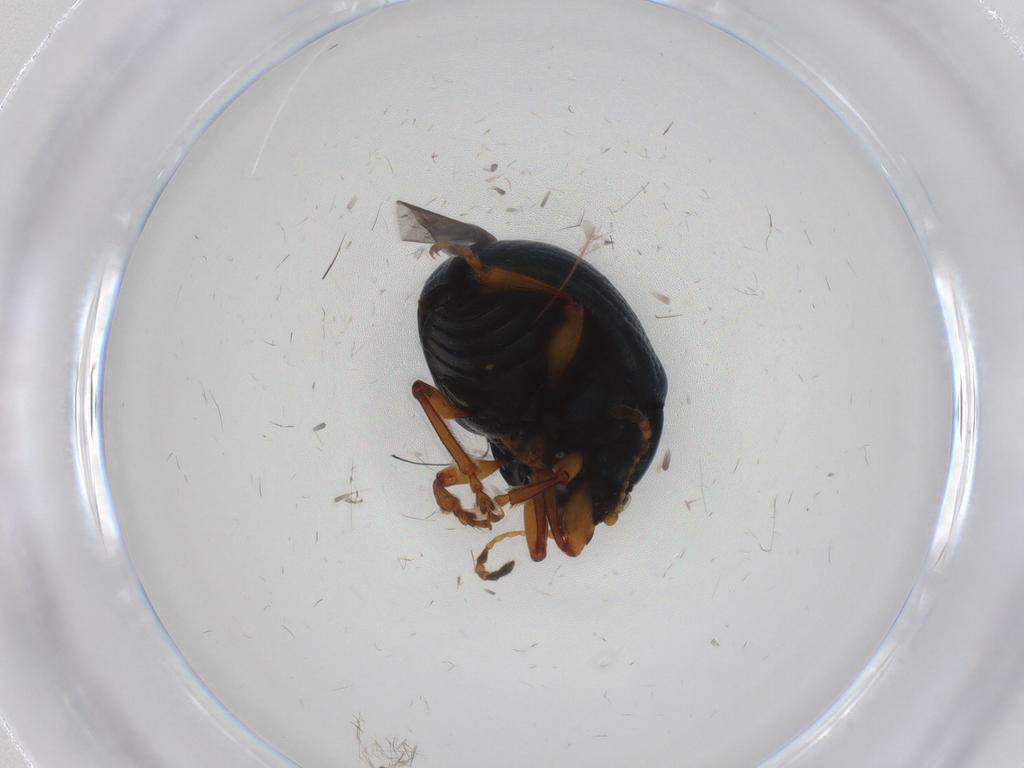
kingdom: Animalia
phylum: Arthropoda
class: Insecta
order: Coleoptera
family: Chrysomelidae
